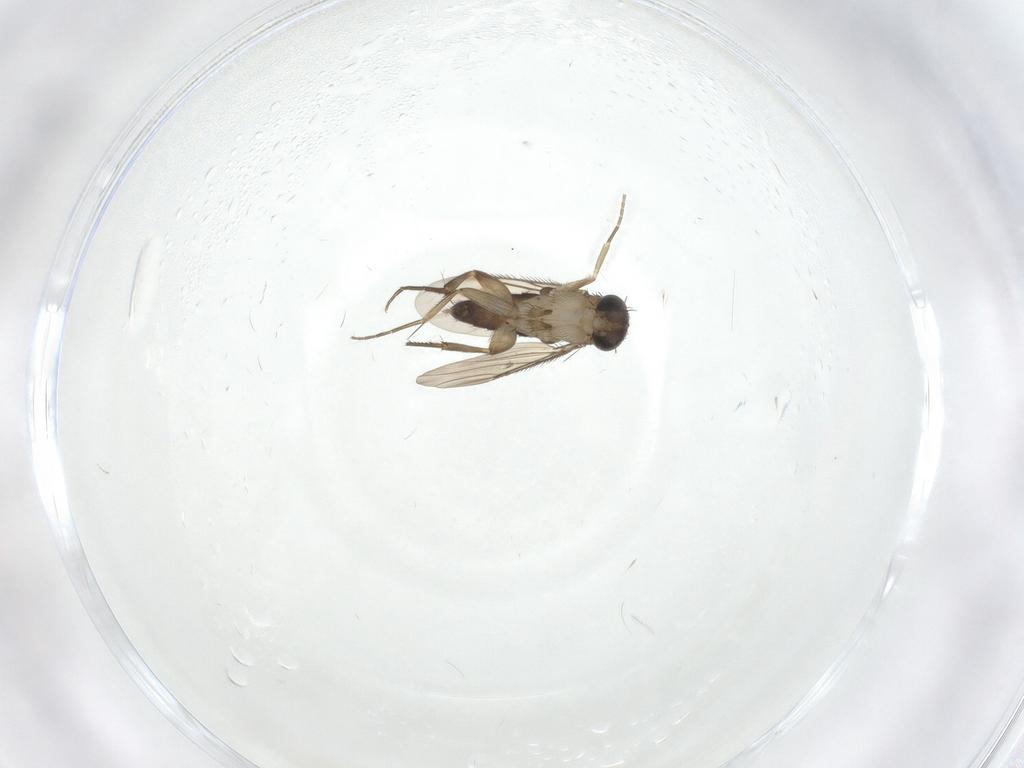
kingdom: Animalia
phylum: Arthropoda
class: Insecta
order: Diptera
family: Phoridae
